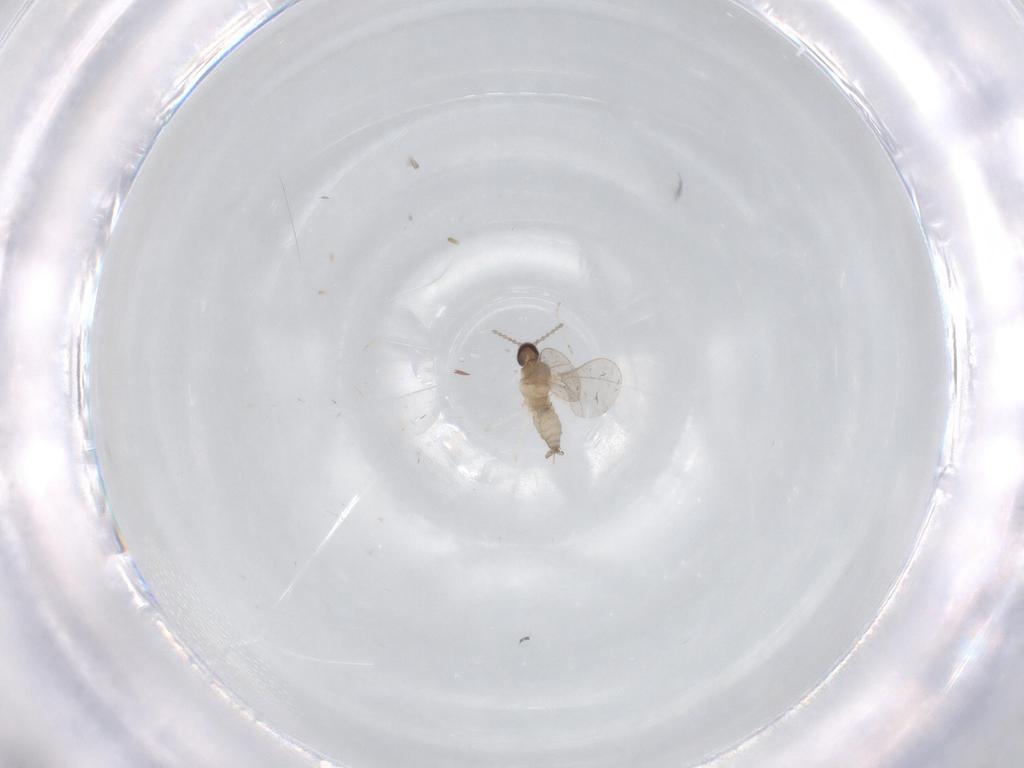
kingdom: Animalia
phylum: Arthropoda
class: Insecta
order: Diptera
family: Cecidomyiidae
